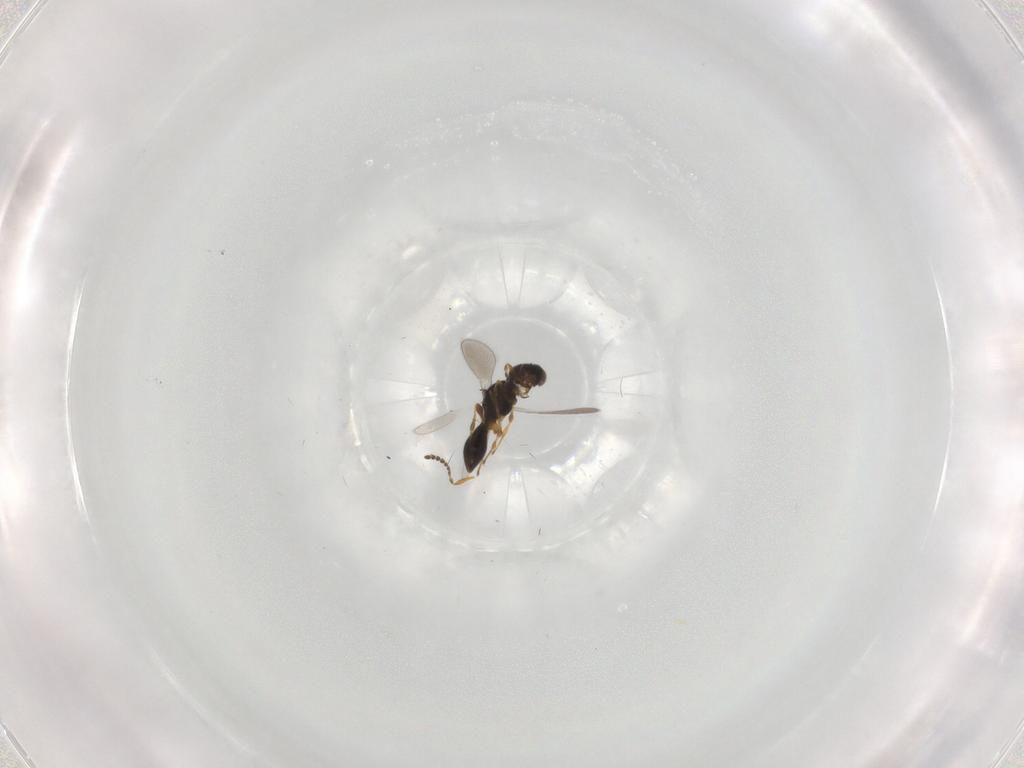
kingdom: Animalia
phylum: Arthropoda
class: Insecta
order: Hymenoptera
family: Platygastridae
